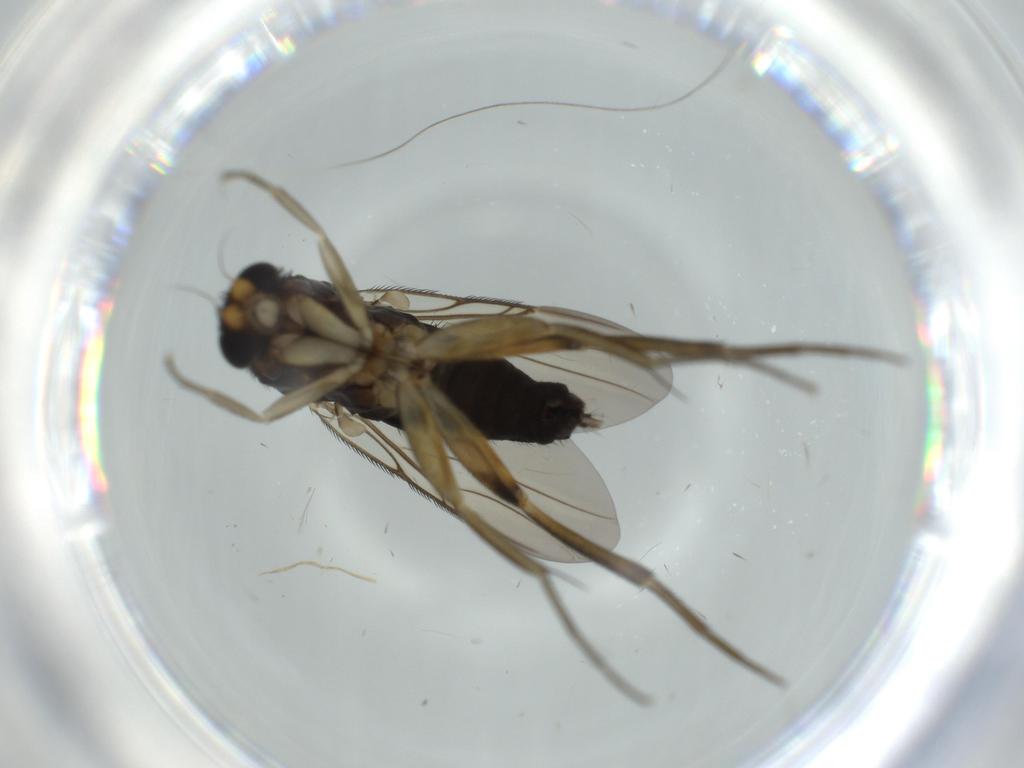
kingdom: Animalia
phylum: Arthropoda
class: Insecta
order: Diptera
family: Phoridae
